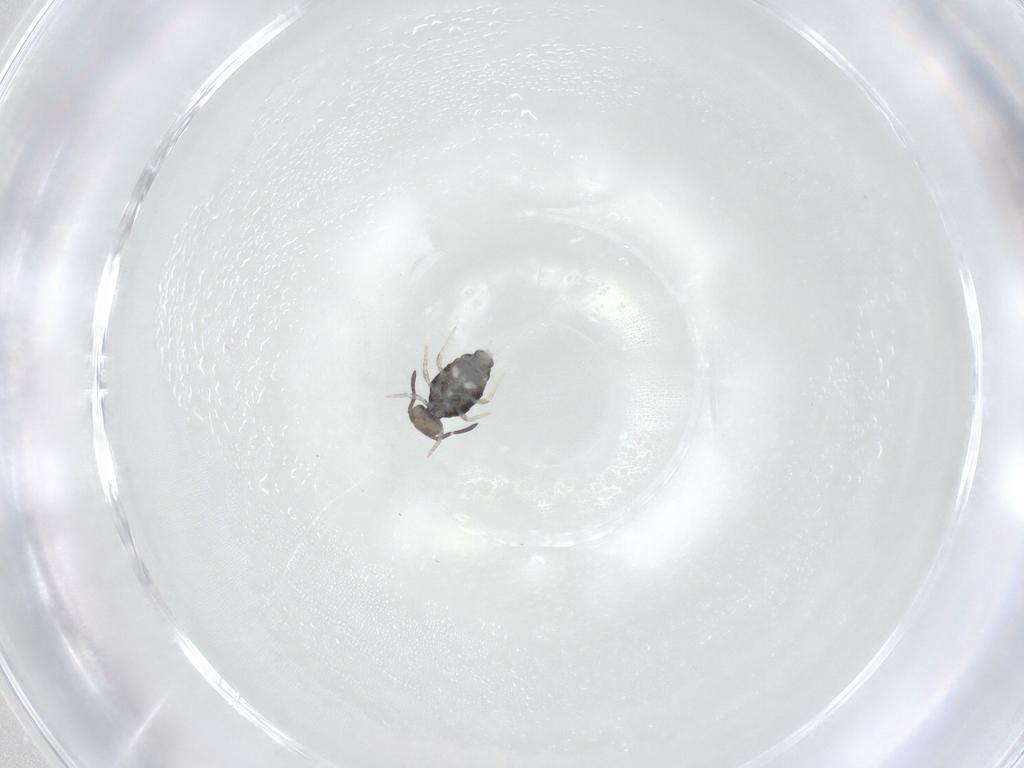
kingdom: Animalia
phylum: Arthropoda
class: Collembola
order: Symphypleona
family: Katiannidae
